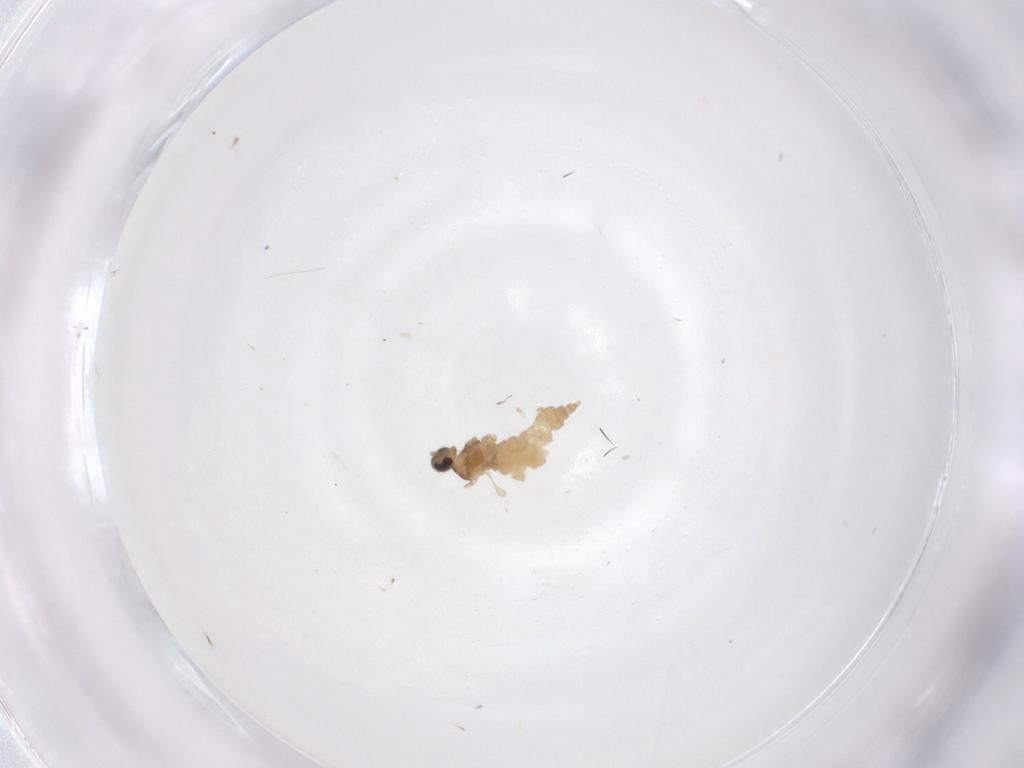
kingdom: Animalia
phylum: Arthropoda
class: Insecta
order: Diptera
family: Cecidomyiidae
